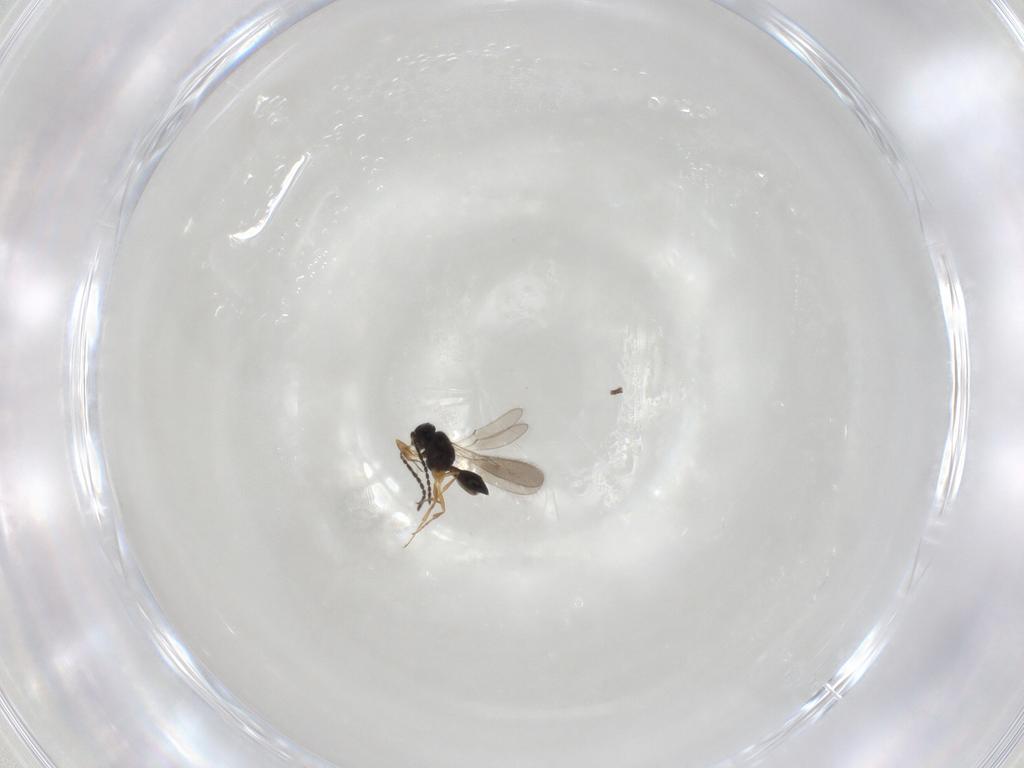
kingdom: Animalia
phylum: Arthropoda
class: Insecta
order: Hymenoptera
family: Scelionidae
